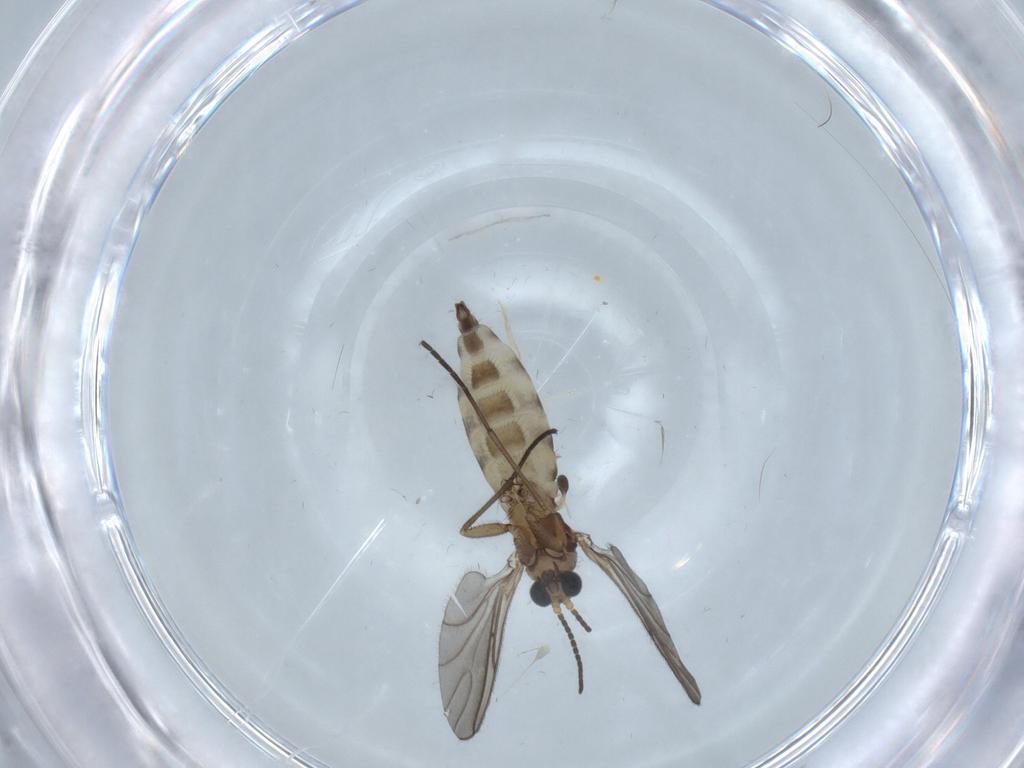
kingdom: Animalia
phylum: Arthropoda
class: Insecta
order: Diptera
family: Sciaridae
